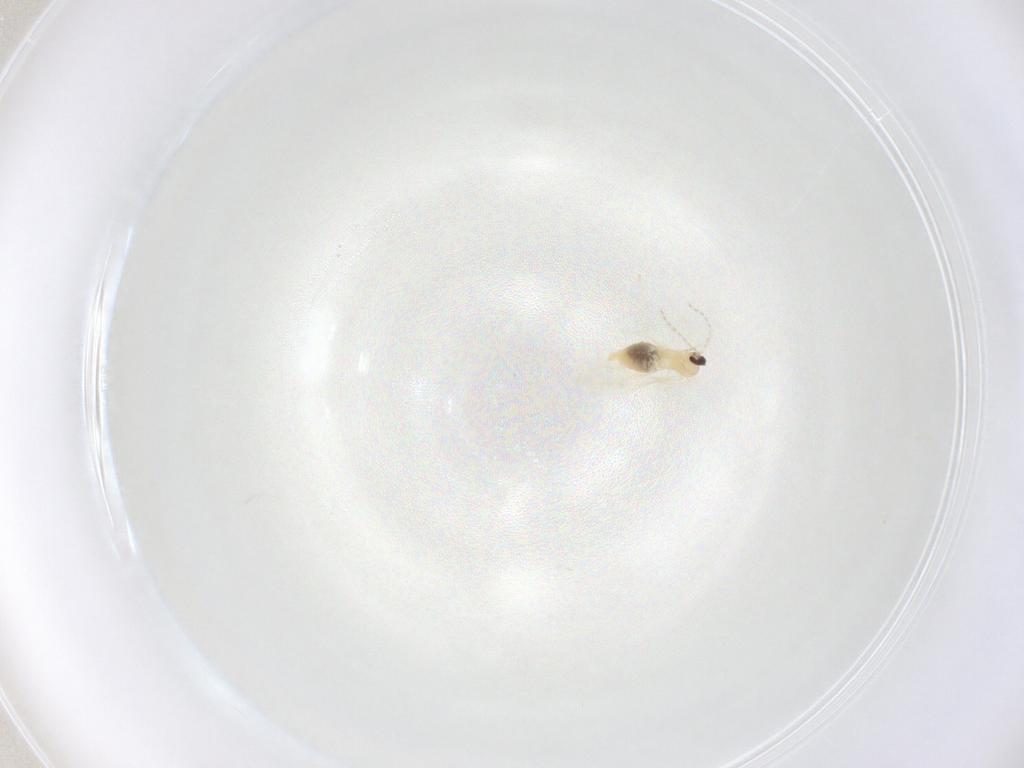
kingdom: Animalia
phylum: Arthropoda
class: Insecta
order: Diptera
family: Cecidomyiidae
